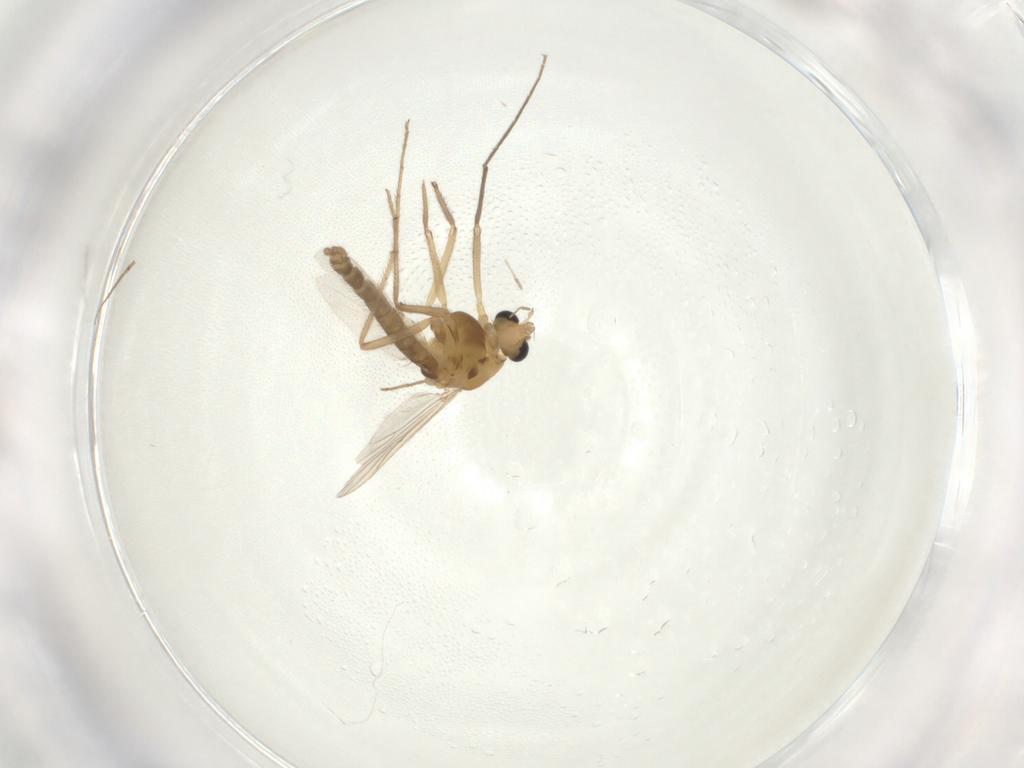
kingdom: Animalia
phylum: Arthropoda
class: Insecta
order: Diptera
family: Chironomidae
